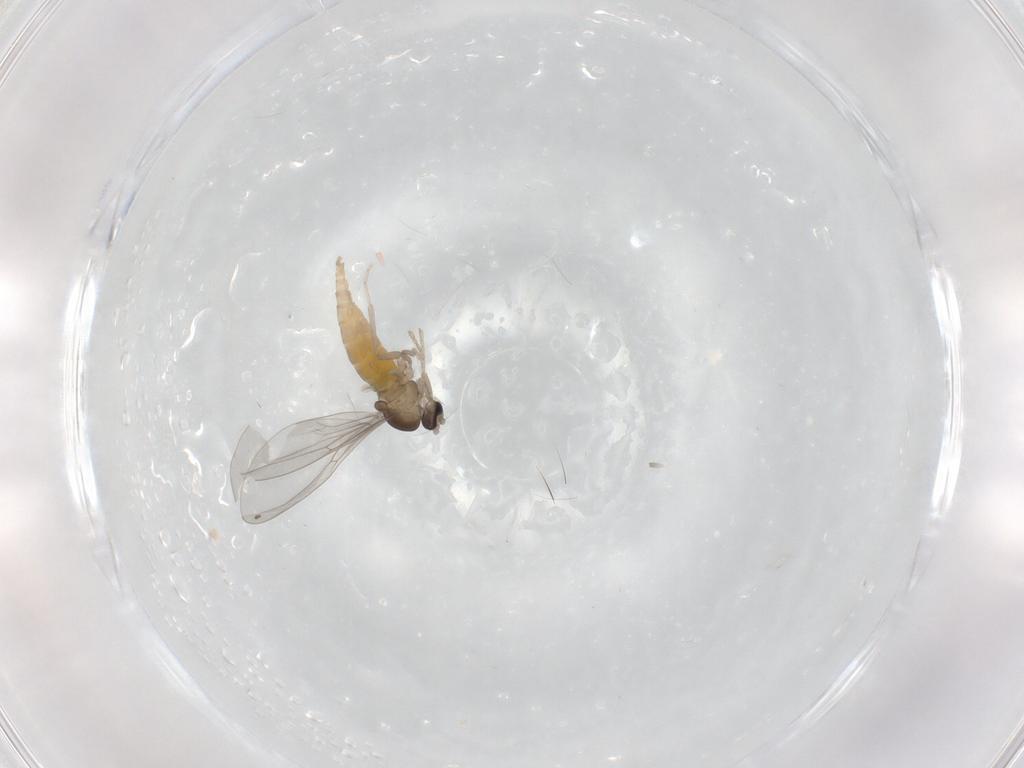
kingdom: Animalia
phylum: Arthropoda
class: Insecta
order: Diptera
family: Cecidomyiidae
